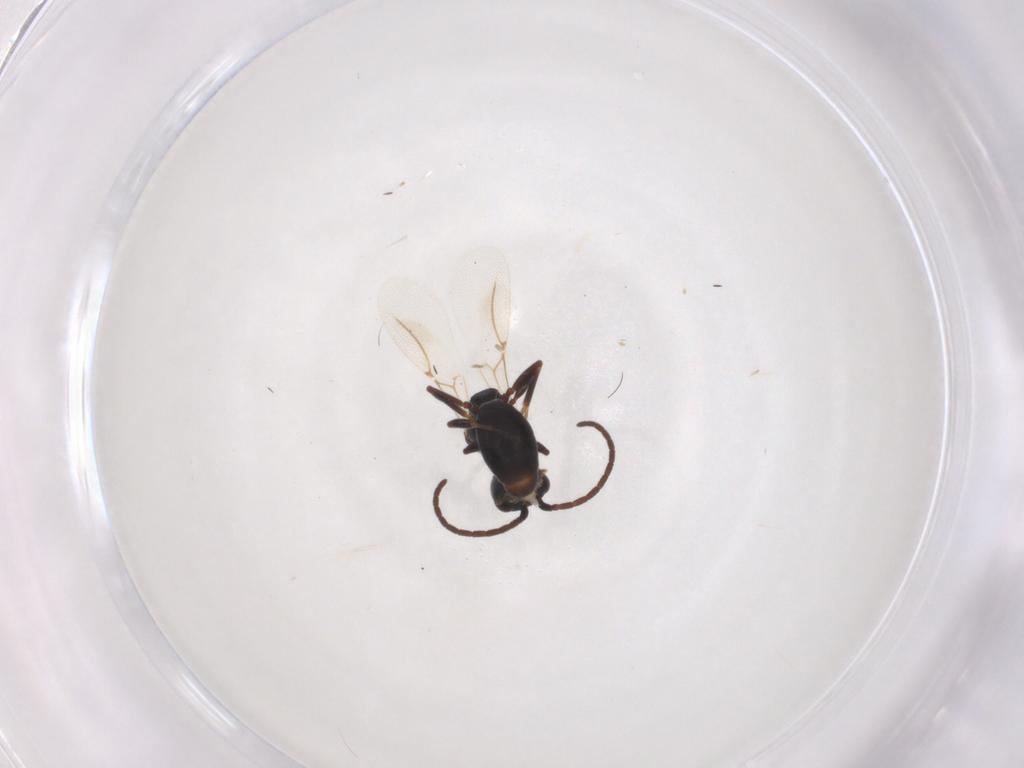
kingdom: Animalia
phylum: Arthropoda
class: Insecta
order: Hymenoptera
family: Bethylidae
